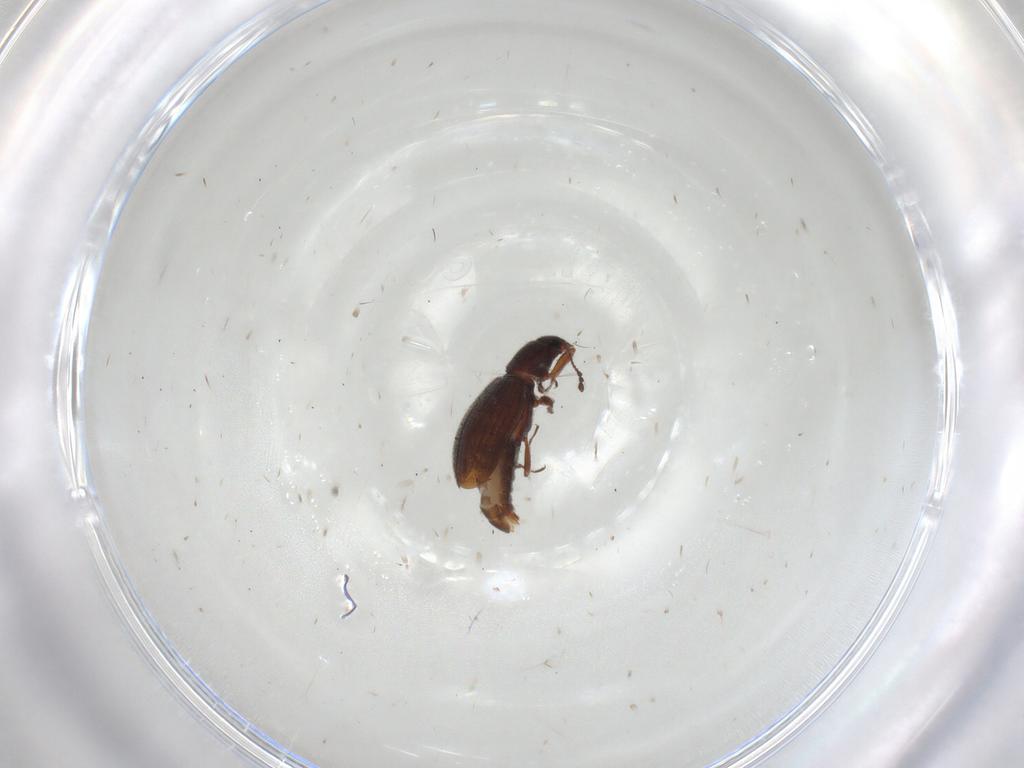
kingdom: Animalia
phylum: Arthropoda
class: Insecta
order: Coleoptera
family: Latridiidae
